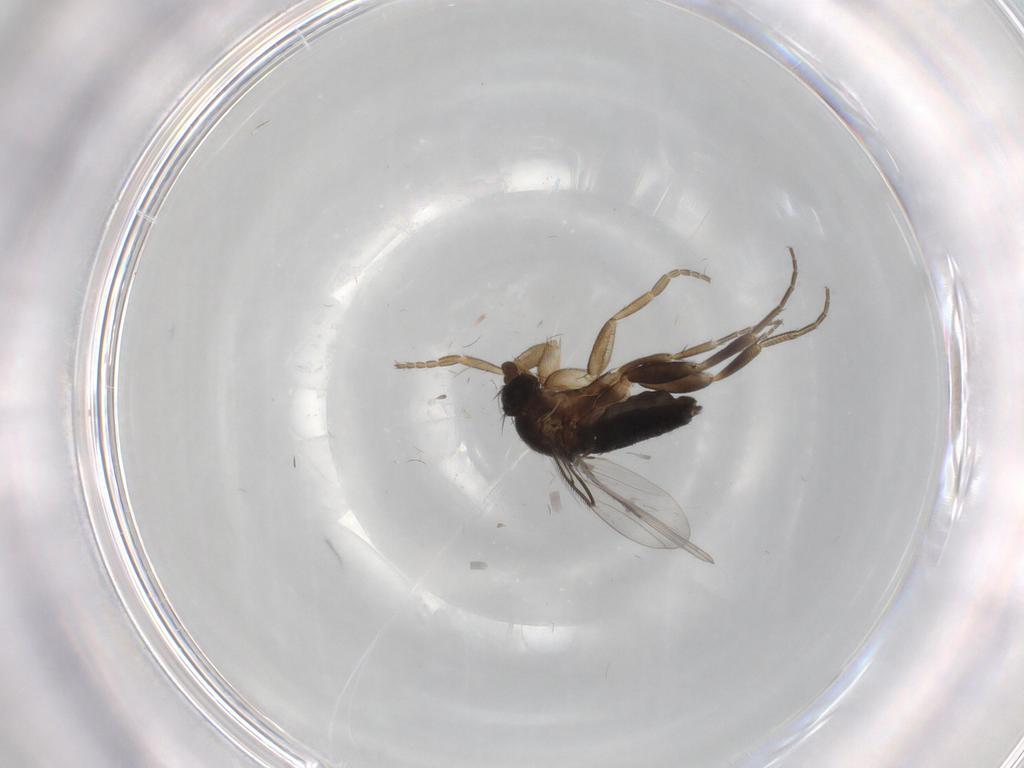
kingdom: Animalia
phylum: Arthropoda
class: Insecta
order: Diptera
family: Phoridae
